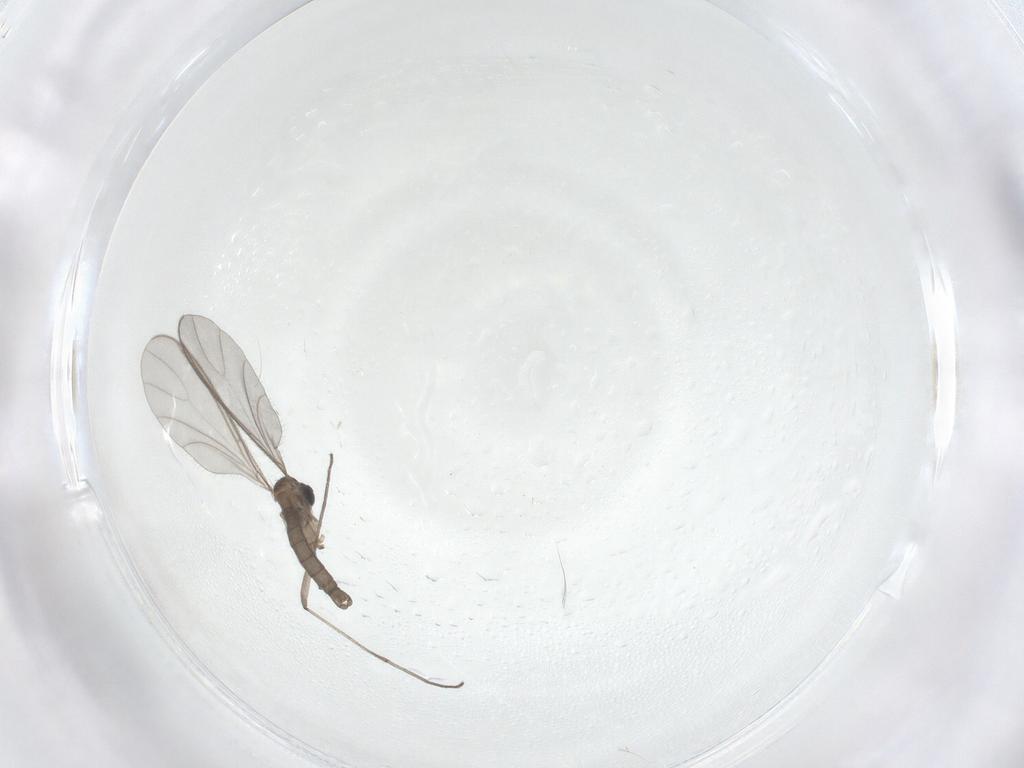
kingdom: Animalia
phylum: Arthropoda
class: Insecta
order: Diptera
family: Sciaridae
